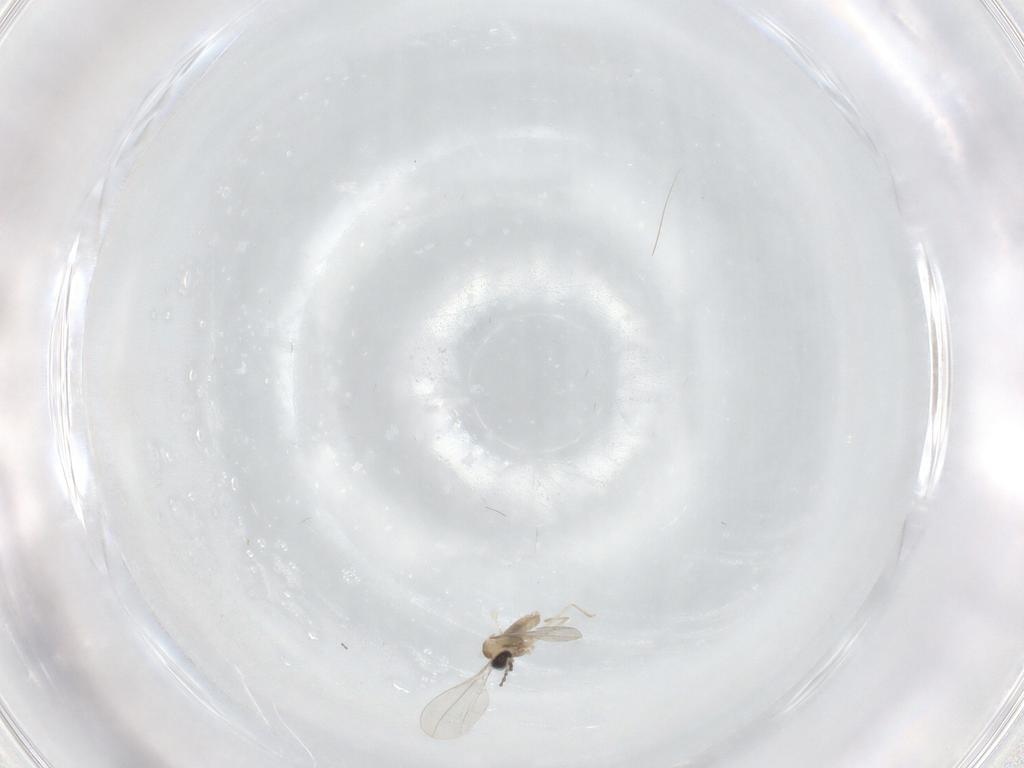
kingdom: Animalia
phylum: Arthropoda
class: Insecta
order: Diptera
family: Cecidomyiidae
